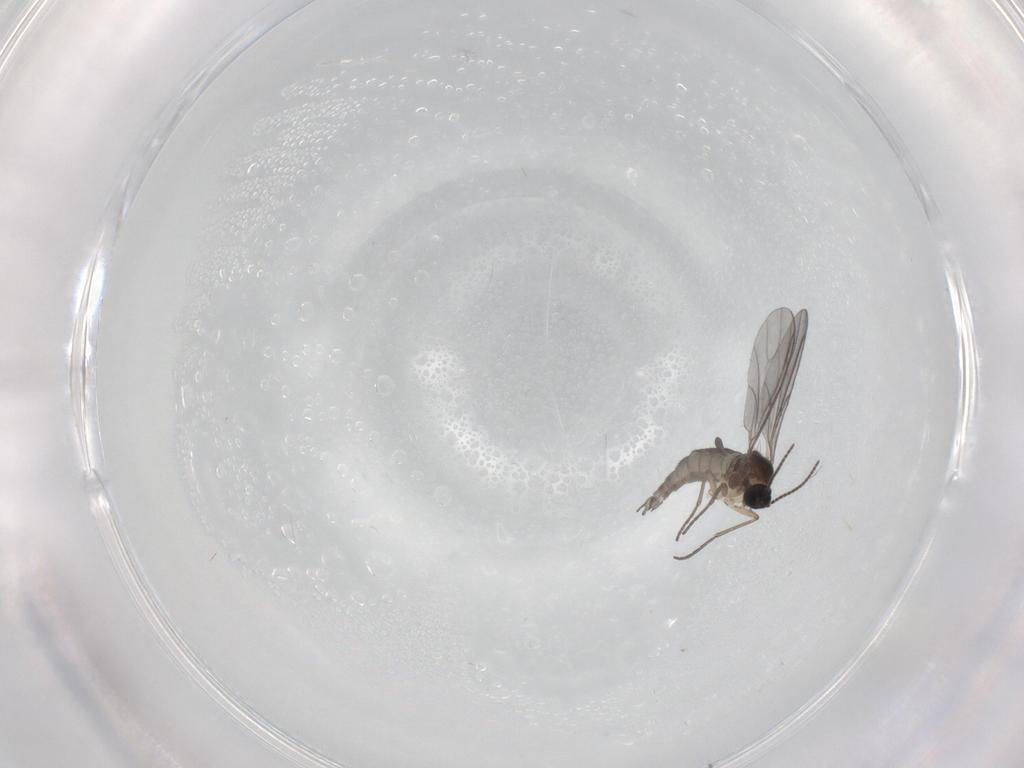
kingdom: Animalia
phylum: Arthropoda
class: Insecta
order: Diptera
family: Sciaridae
